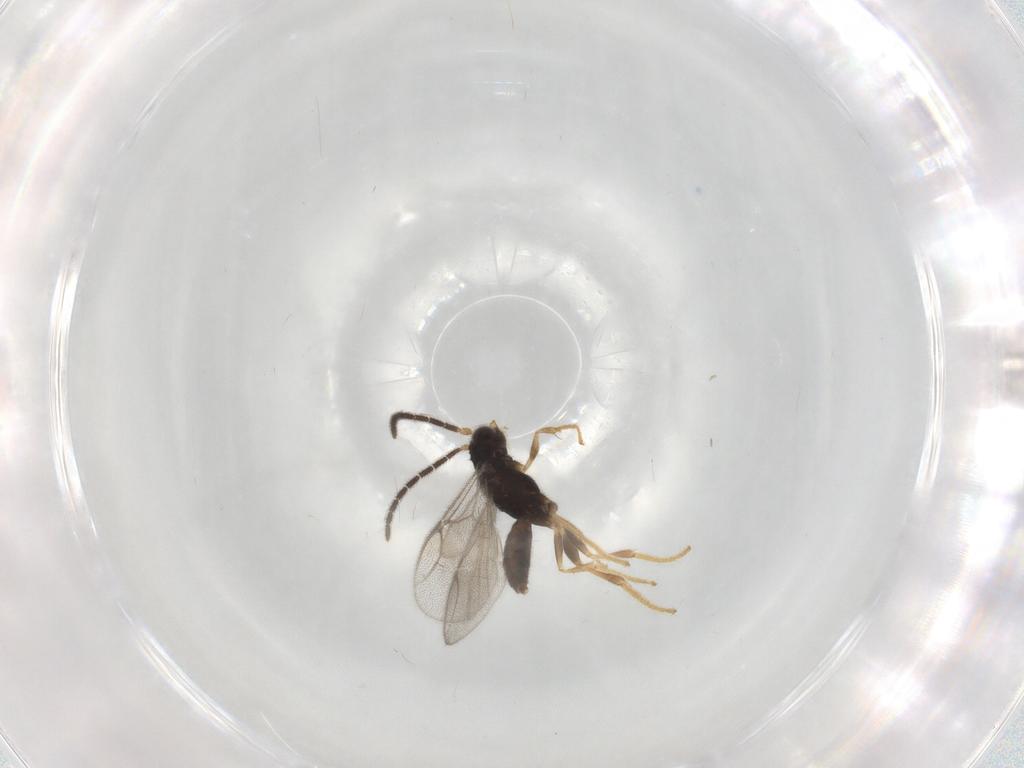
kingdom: Animalia
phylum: Arthropoda
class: Insecta
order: Hymenoptera
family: Dryinidae
